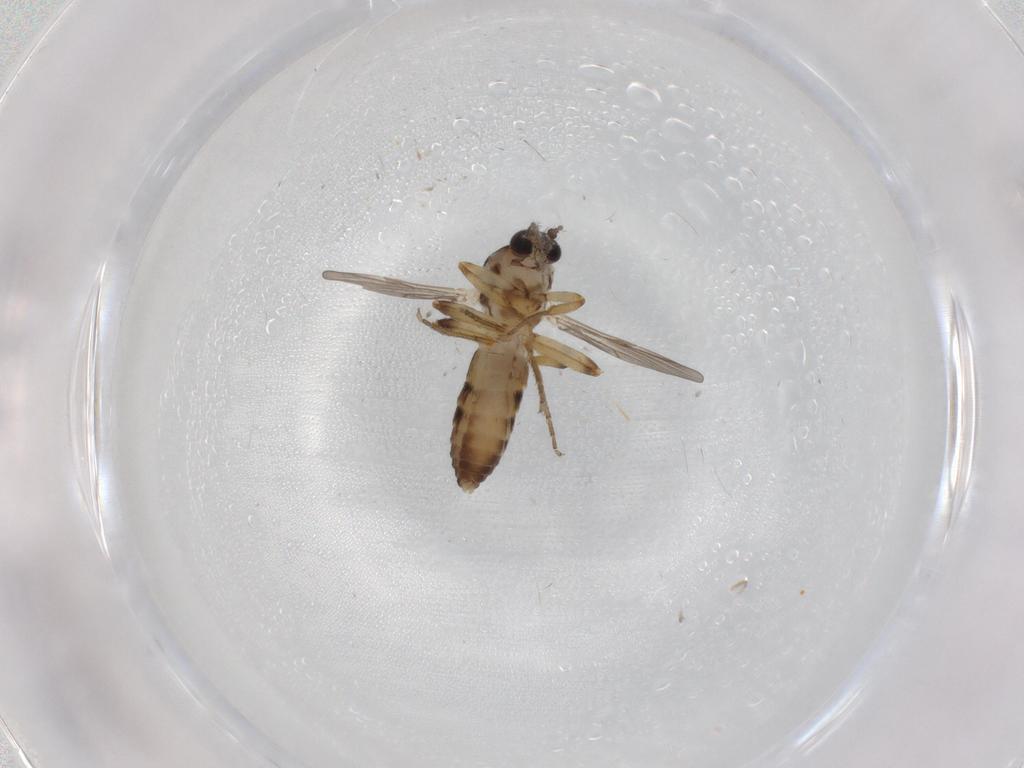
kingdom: Animalia
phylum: Arthropoda
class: Insecta
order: Diptera
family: Ceratopogonidae
